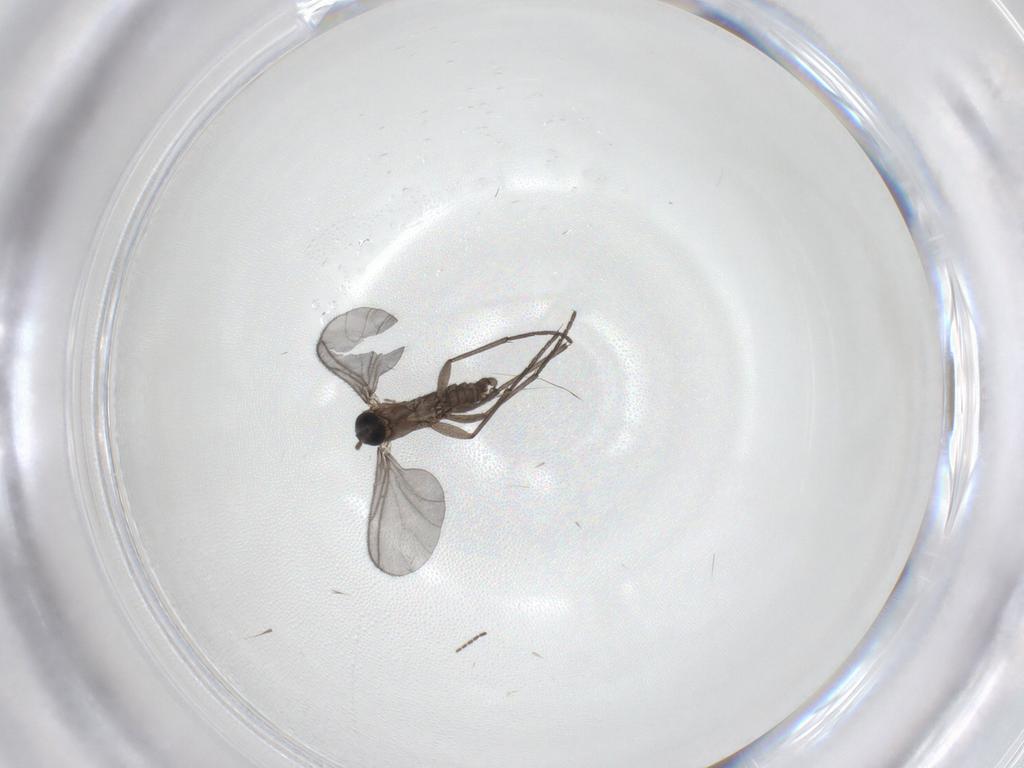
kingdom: Animalia
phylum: Arthropoda
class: Insecta
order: Diptera
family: Sciaridae
